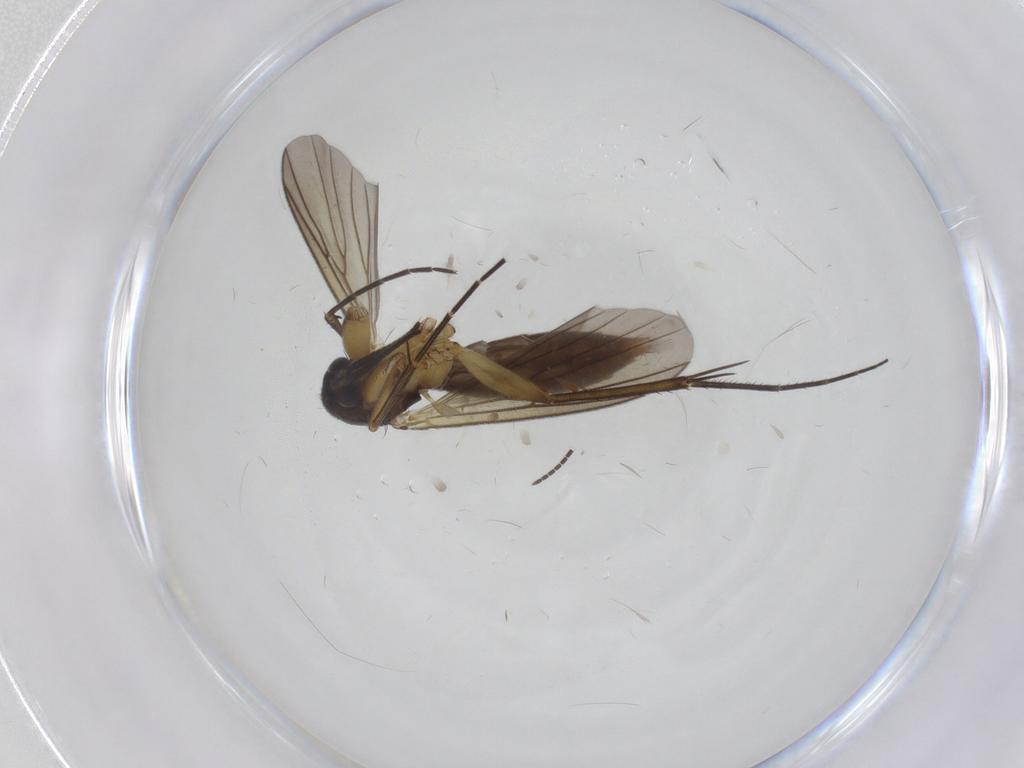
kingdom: Animalia
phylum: Arthropoda
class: Insecta
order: Diptera
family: Mycetophilidae
